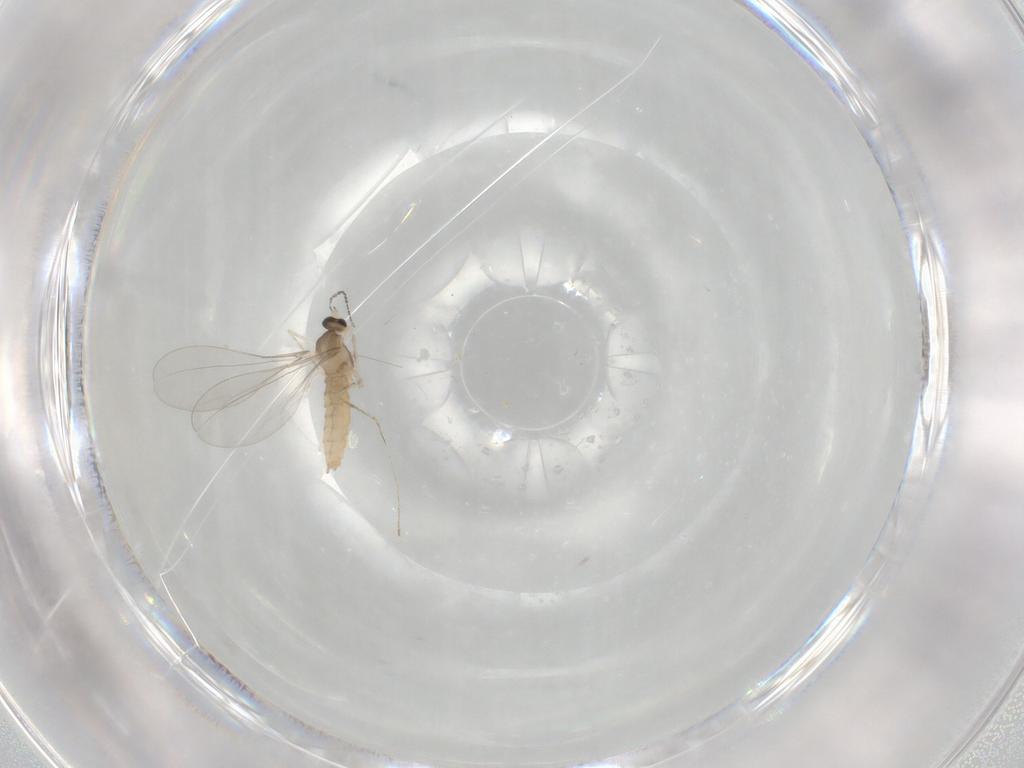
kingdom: Animalia
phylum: Arthropoda
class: Insecta
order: Diptera
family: Cecidomyiidae
